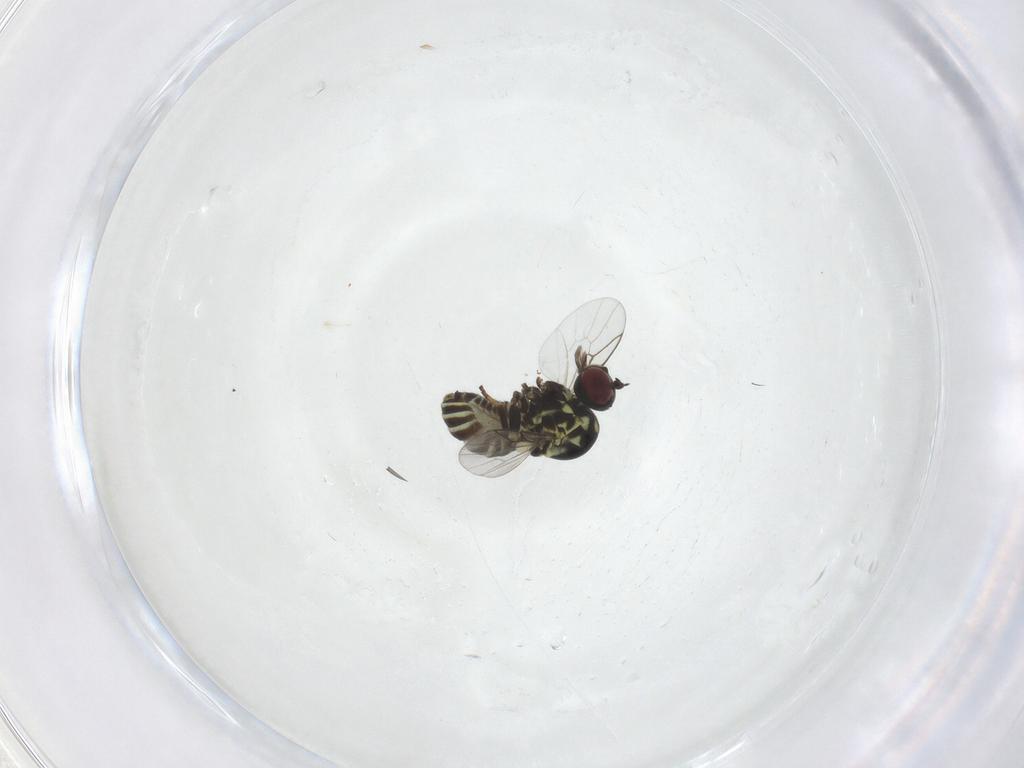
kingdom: Animalia
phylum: Arthropoda
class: Insecta
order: Diptera
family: Mythicomyiidae
